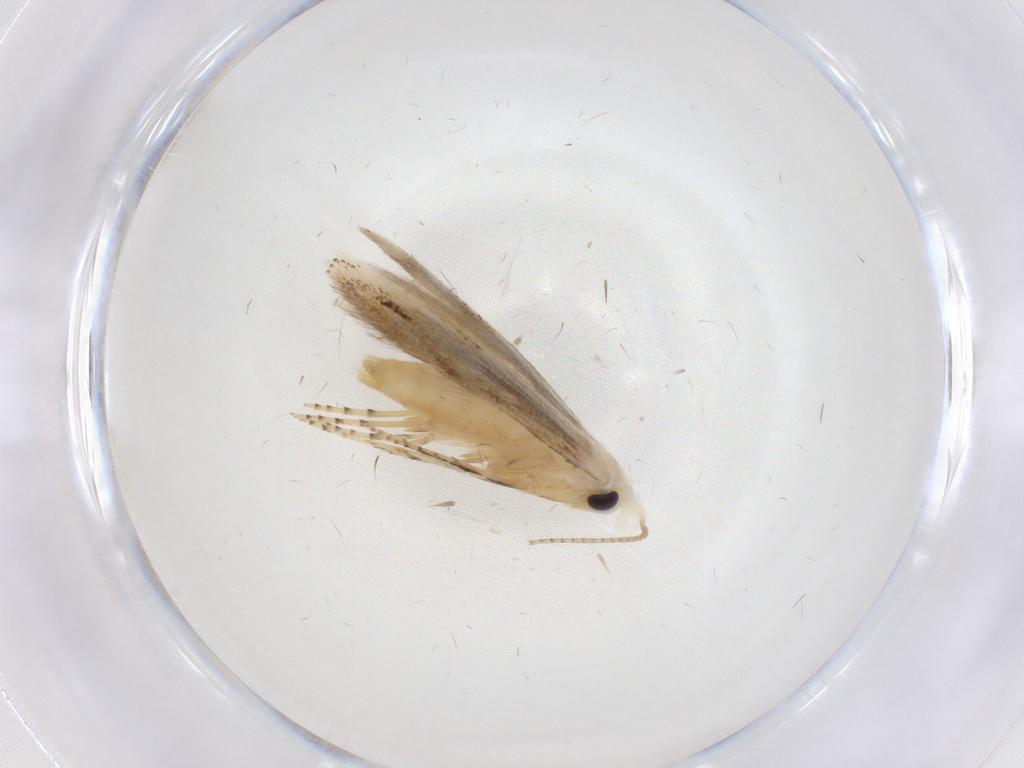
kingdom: Animalia
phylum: Arthropoda
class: Insecta
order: Lepidoptera
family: Bucculatricidae
